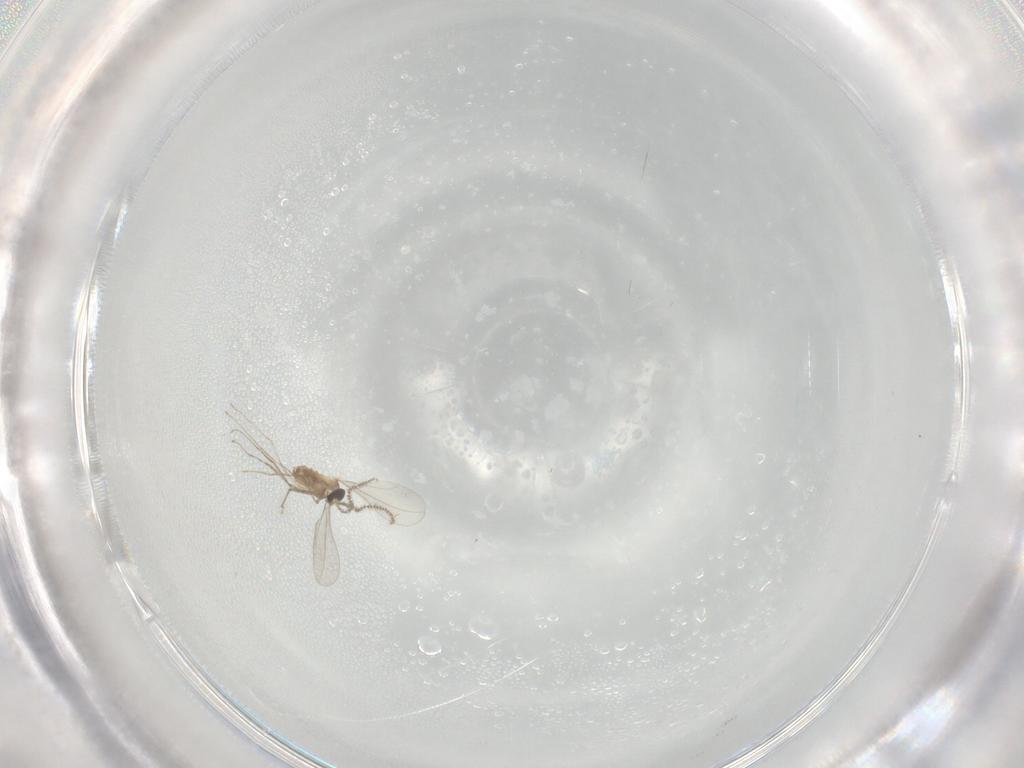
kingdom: Animalia
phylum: Arthropoda
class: Insecta
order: Diptera
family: Cecidomyiidae
